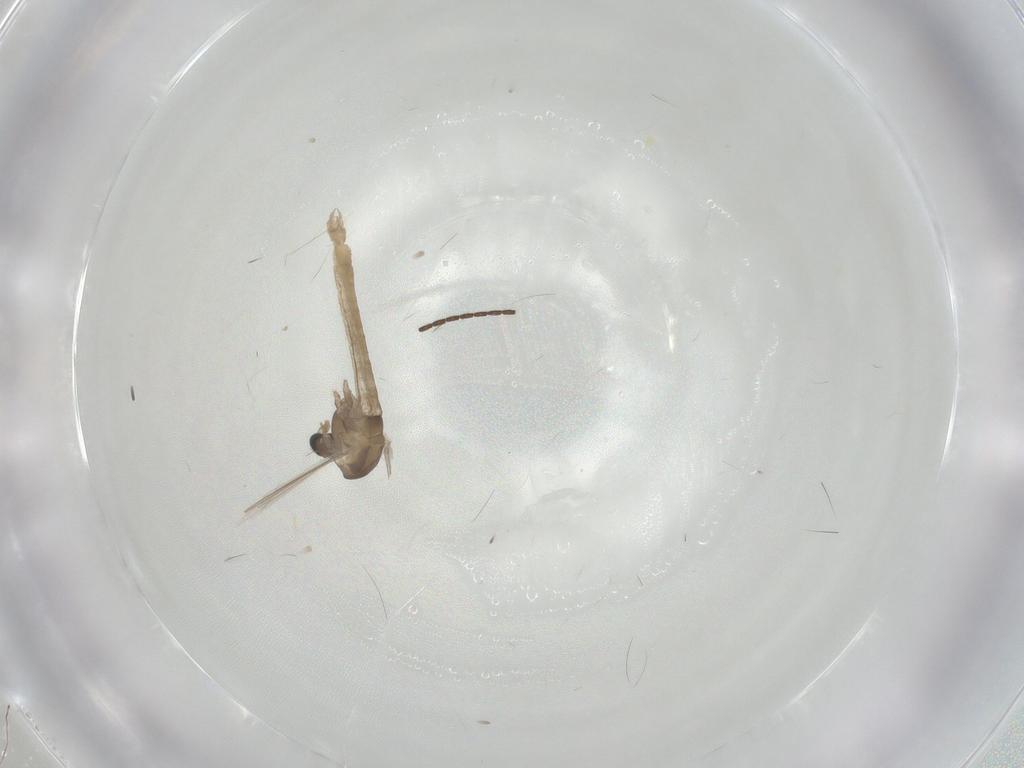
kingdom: Animalia
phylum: Arthropoda
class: Insecta
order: Diptera
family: Chironomidae
